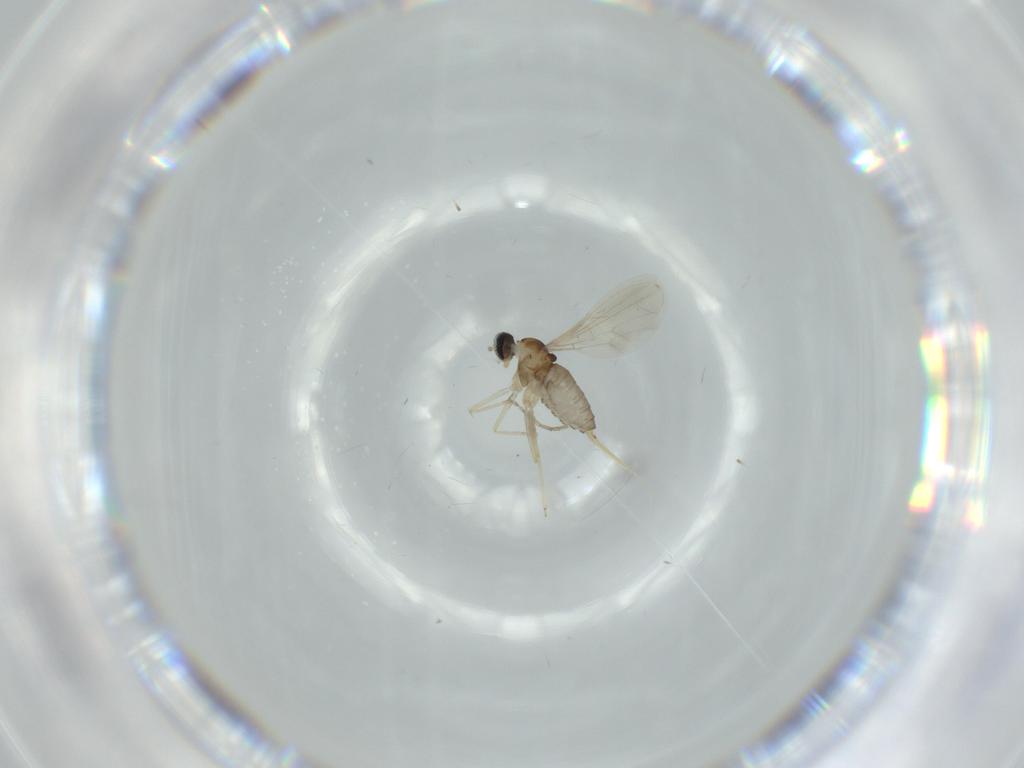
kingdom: Animalia
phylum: Arthropoda
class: Insecta
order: Diptera
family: Cecidomyiidae
